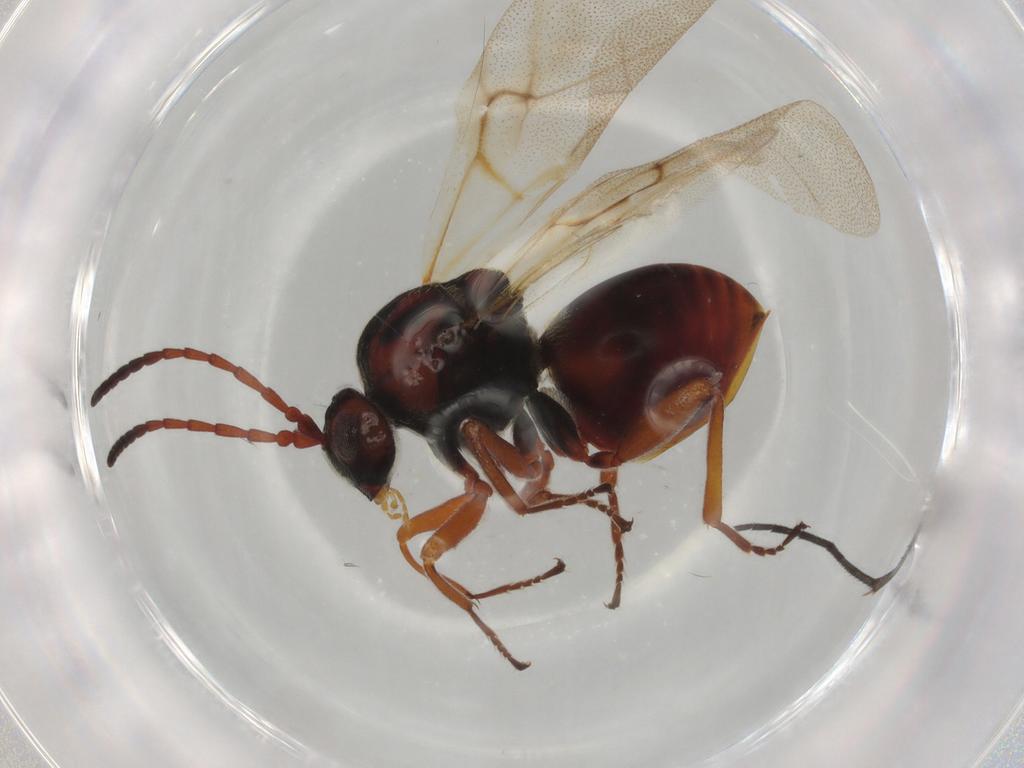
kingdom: Animalia
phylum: Arthropoda
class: Insecta
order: Hymenoptera
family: Cynipidae
